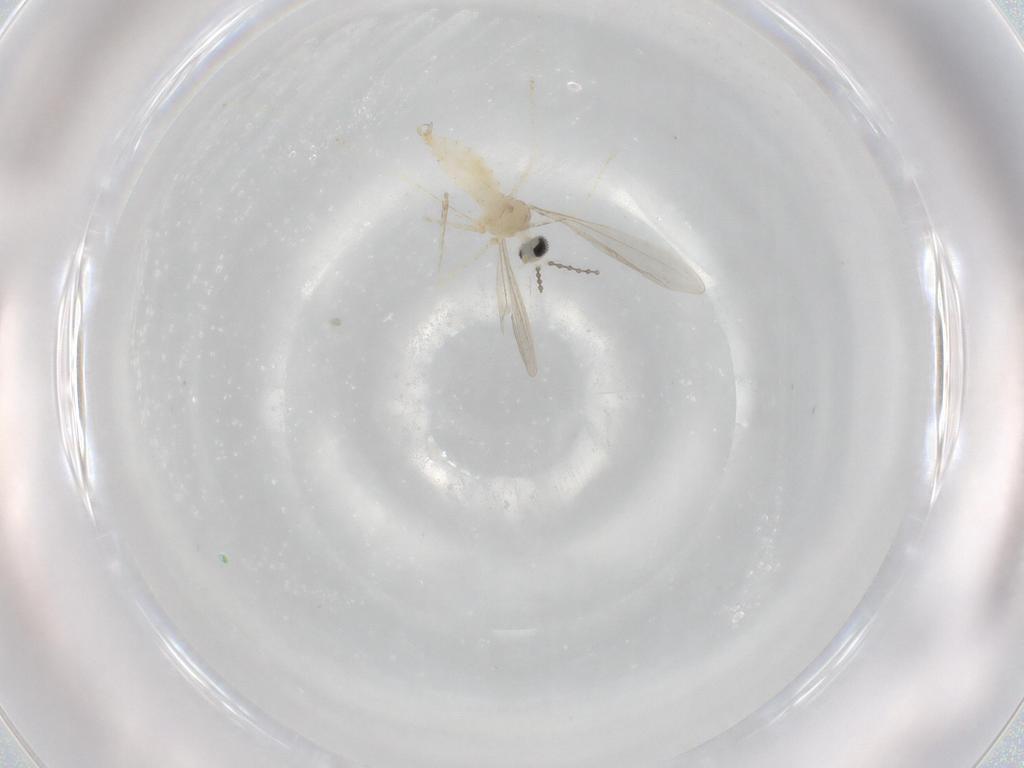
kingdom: Animalia
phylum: Arthropoda
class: Insecta
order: Diptera
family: Cecidomyiidae
